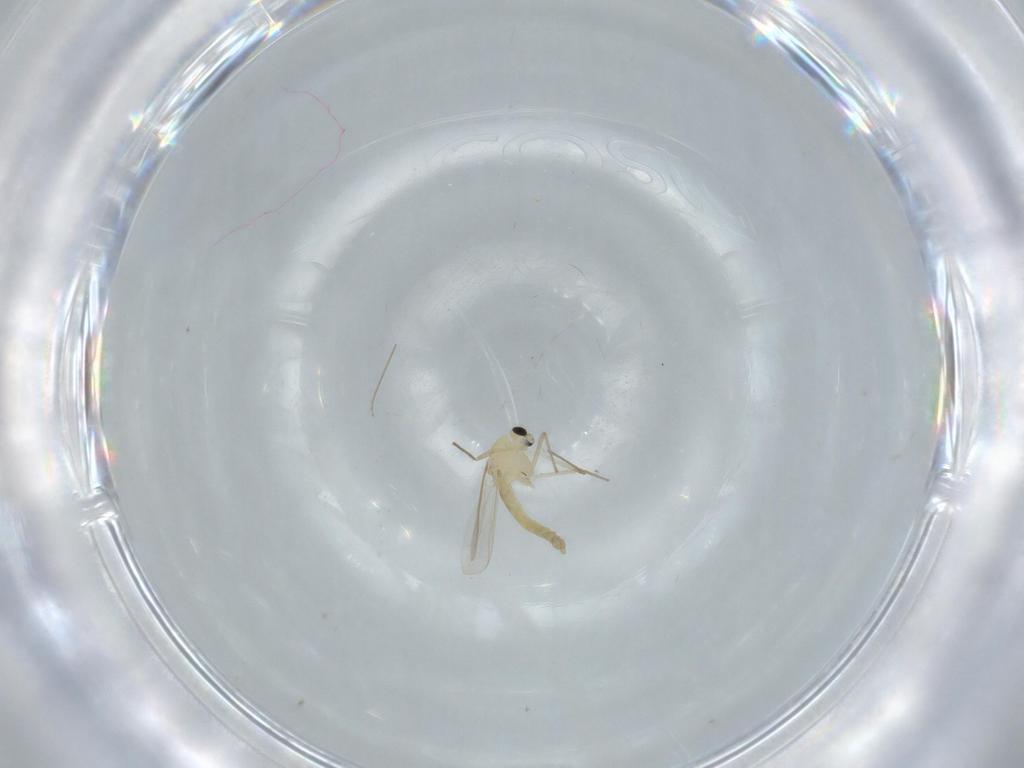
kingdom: Animalia
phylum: Arthropoda
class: Insecta
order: Diptera
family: Chironomidae
